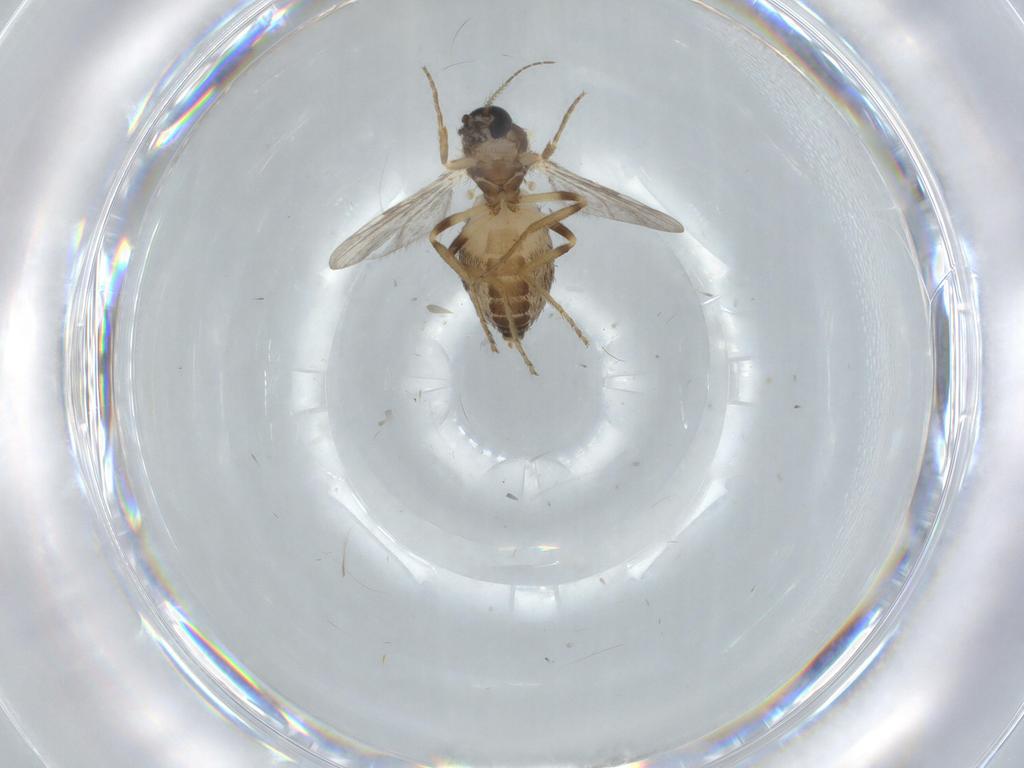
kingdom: Animalia
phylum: Arthropoda
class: Insecta
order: Diptera
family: Ceratopogonidae
